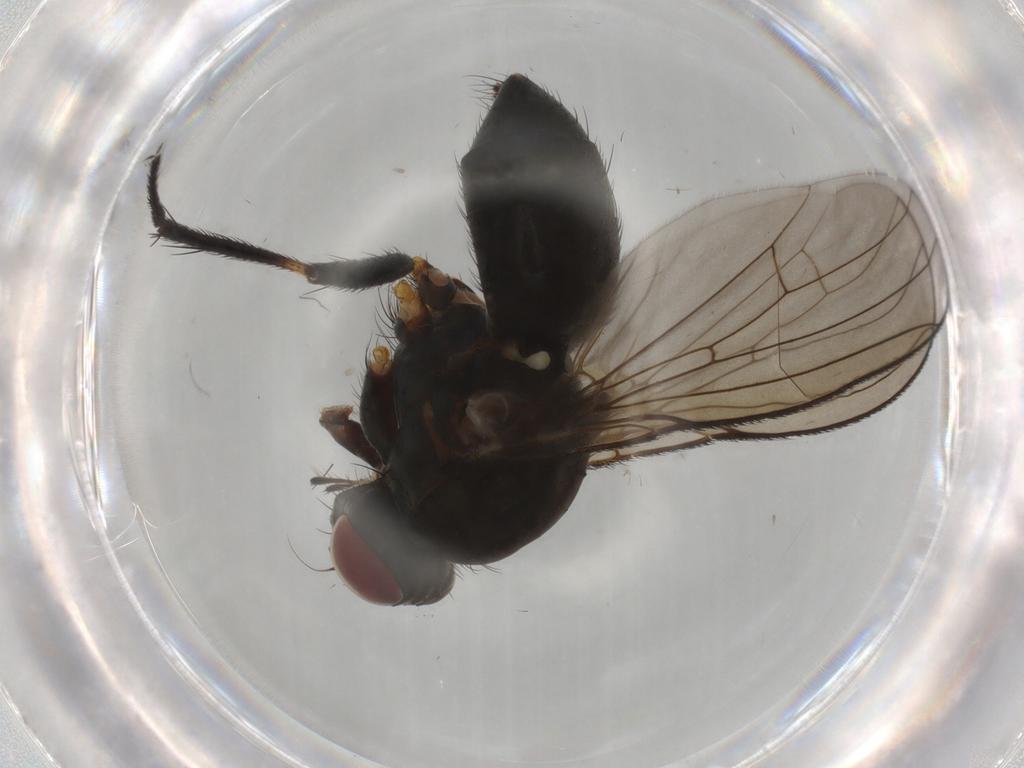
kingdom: Animalia
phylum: Arthropoda
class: Insecta
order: Diptera
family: Muscidae
